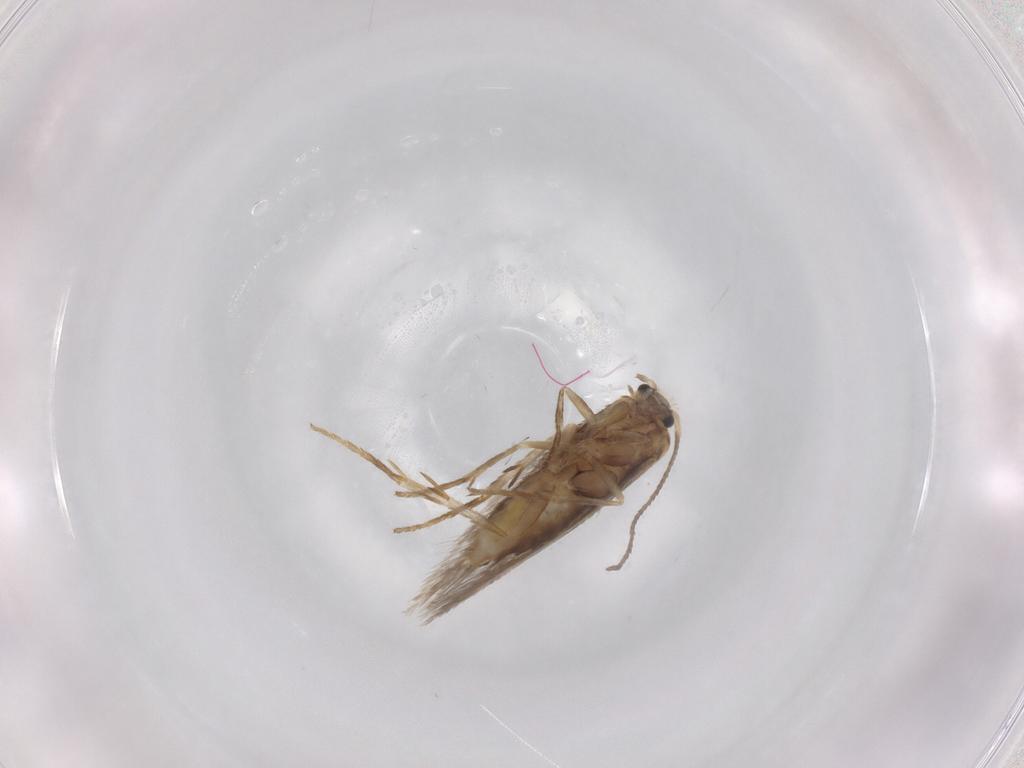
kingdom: Animalia
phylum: Arthropoda
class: Insecta
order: Lepidoptera
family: Nepticulidae
